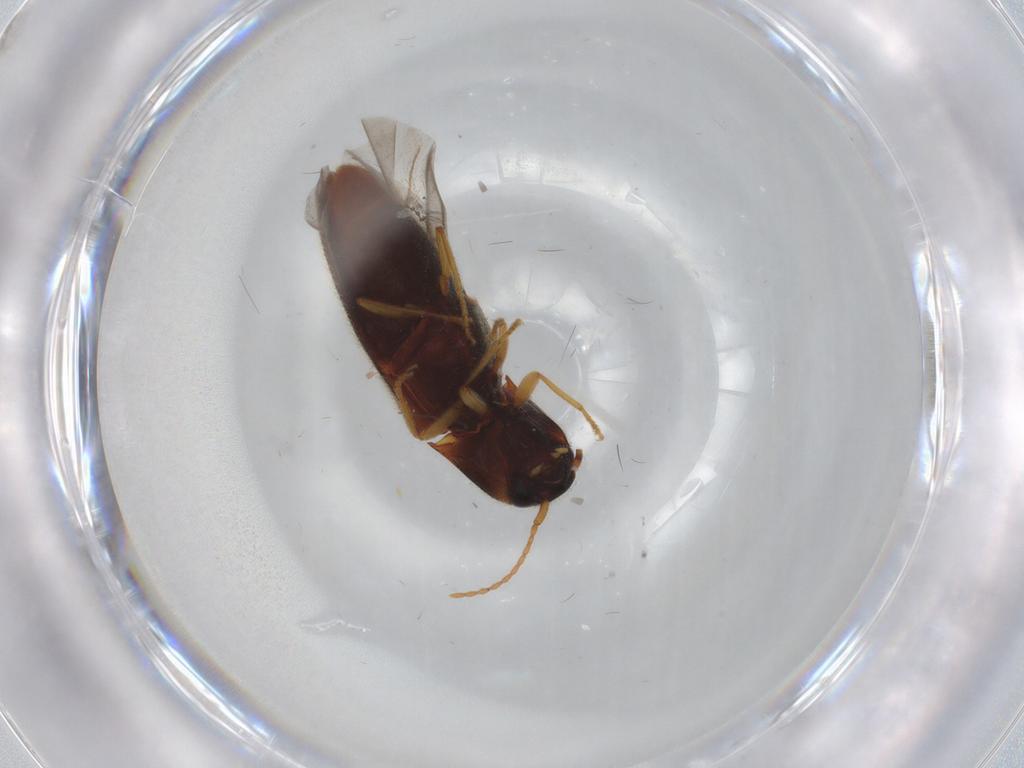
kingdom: Animalia
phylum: Arthropoda
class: Insecta
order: Coleoptera
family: Elateridae
